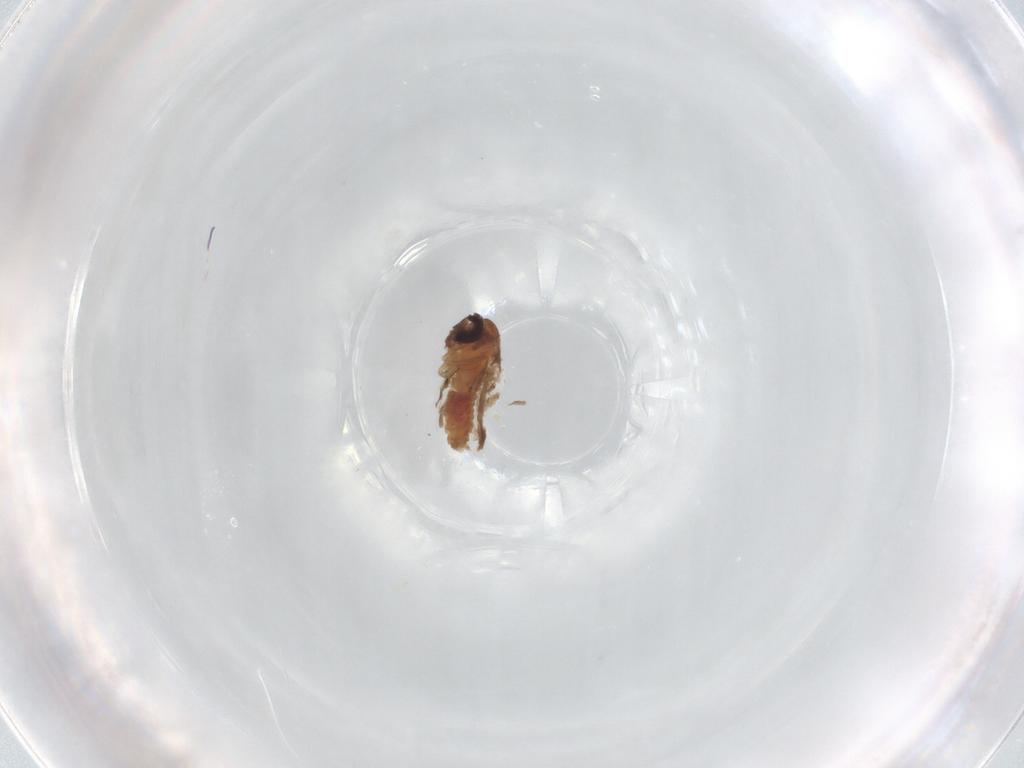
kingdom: Animalia
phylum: Arthropoda
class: Insecta
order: Diptera
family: Psychodidae
